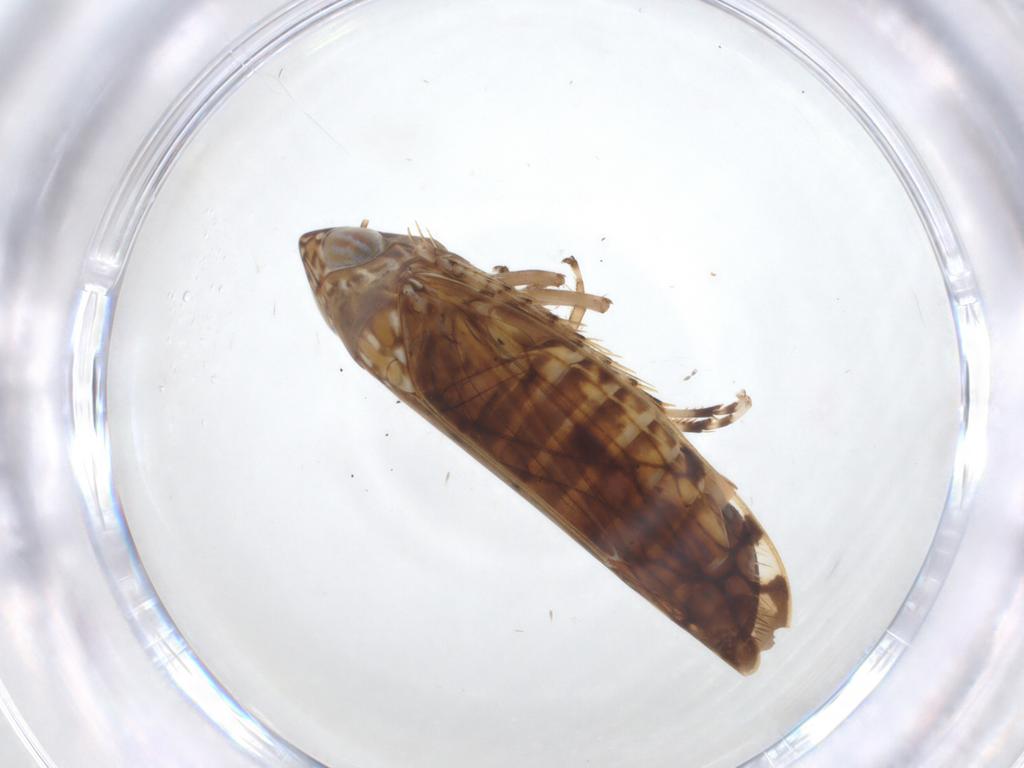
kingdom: Animalia
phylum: Arthropoda
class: Insecta
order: Hemiptera
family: Cicadellidae
